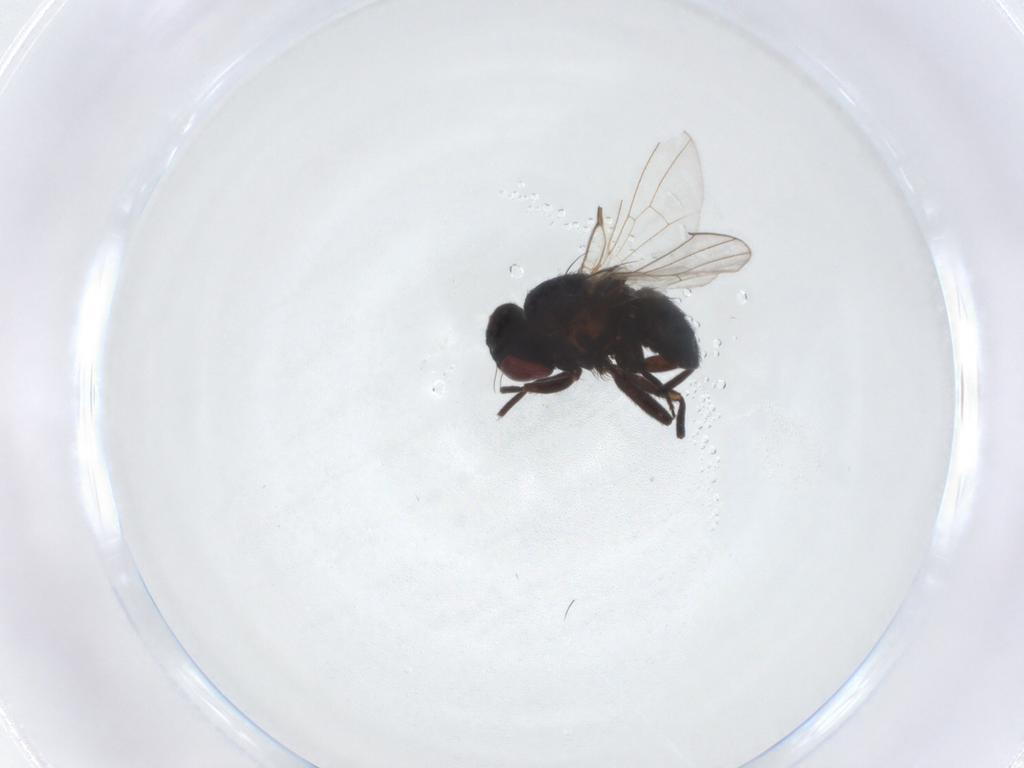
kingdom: Animalia
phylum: Arthropoda
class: Insecta
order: Diptera
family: Agromyzidae
